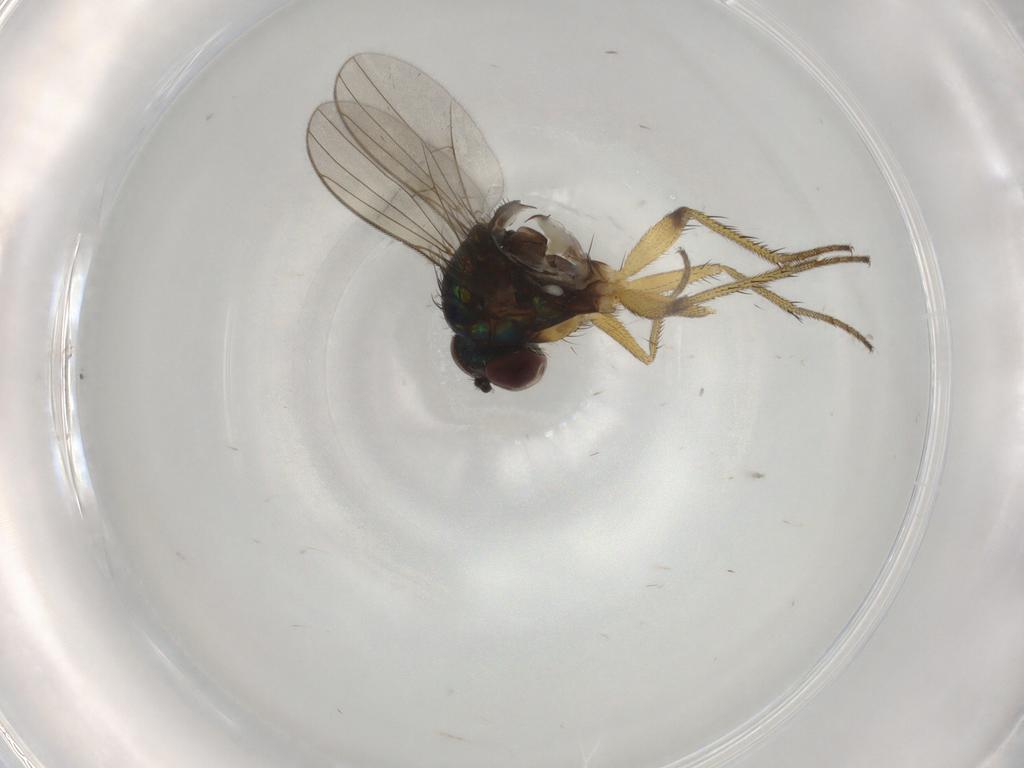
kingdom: Animalia
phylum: Arthropoda
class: Insecta
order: Diptera
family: Dolichopodidae
